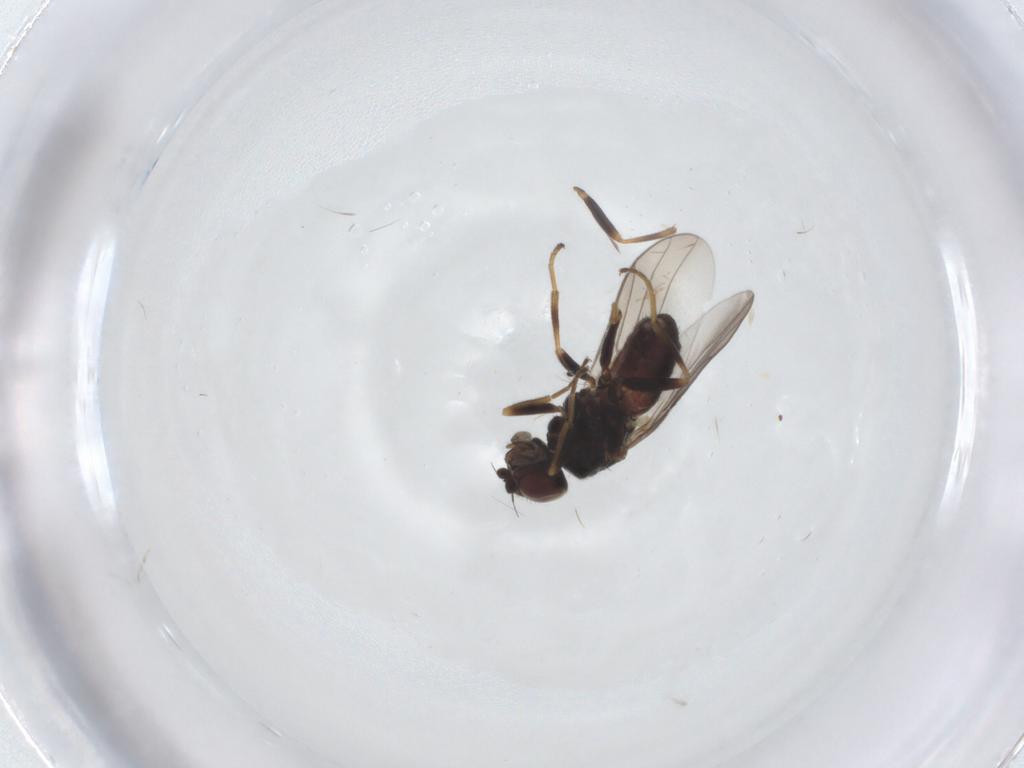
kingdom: Animalia
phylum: Arthropoda
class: Insecta
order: Diptera
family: Chloropidae
